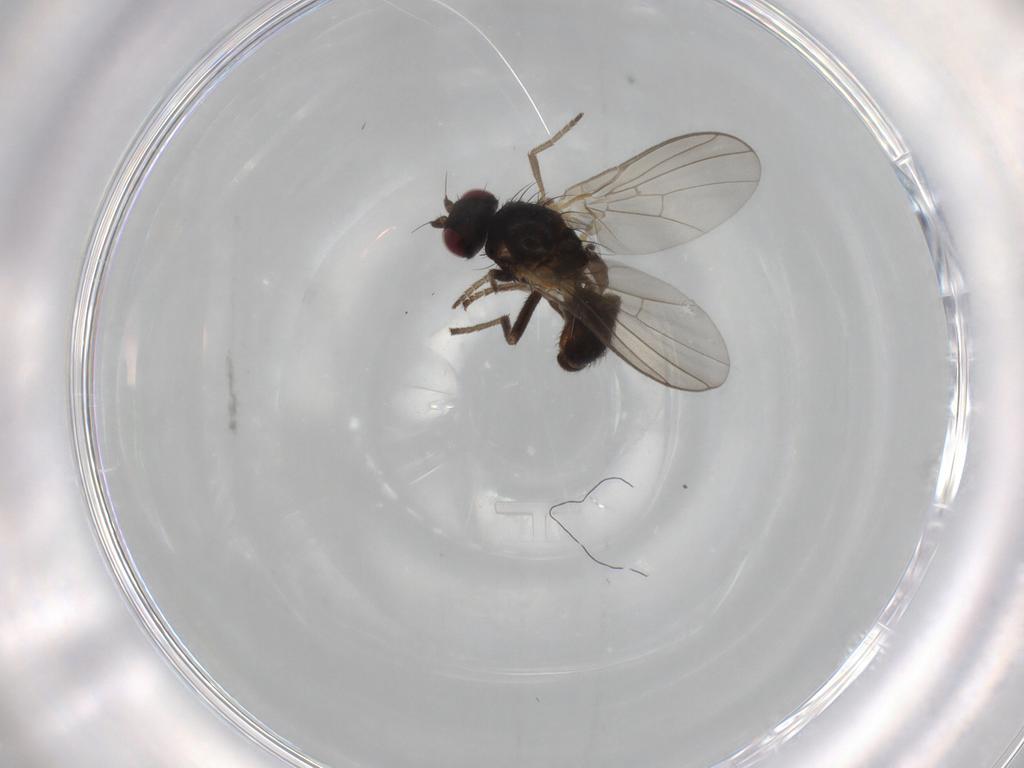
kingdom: Animalia
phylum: Arthropoda
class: Insecta
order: Diptera
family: Agromyzidae
